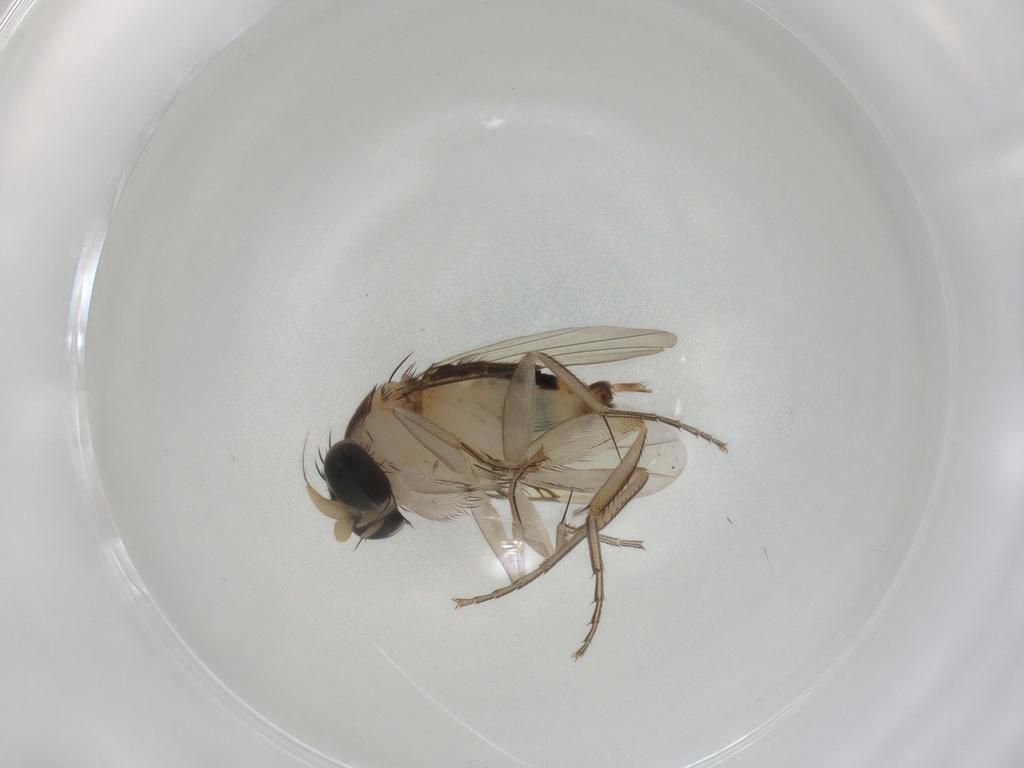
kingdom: Animalia
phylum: Arthropoda
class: Insecta
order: Diptera
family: Phoridae
